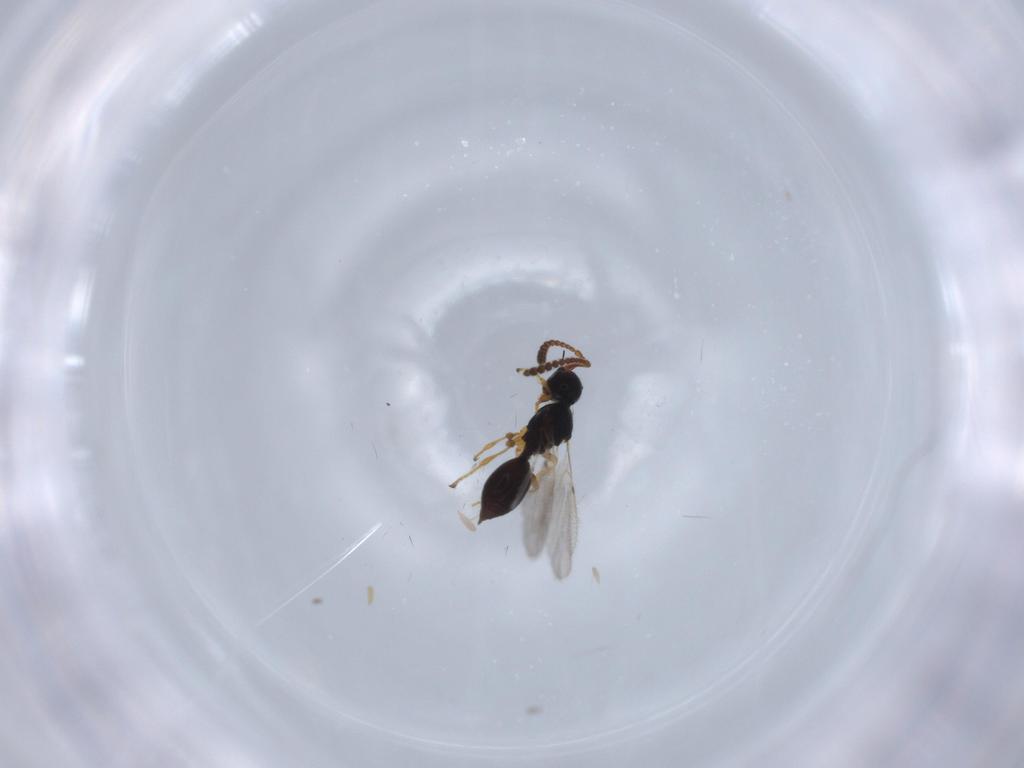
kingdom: Animalia
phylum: Arthropoda
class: Insecta
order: Hymenoptera
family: Diapriidae
